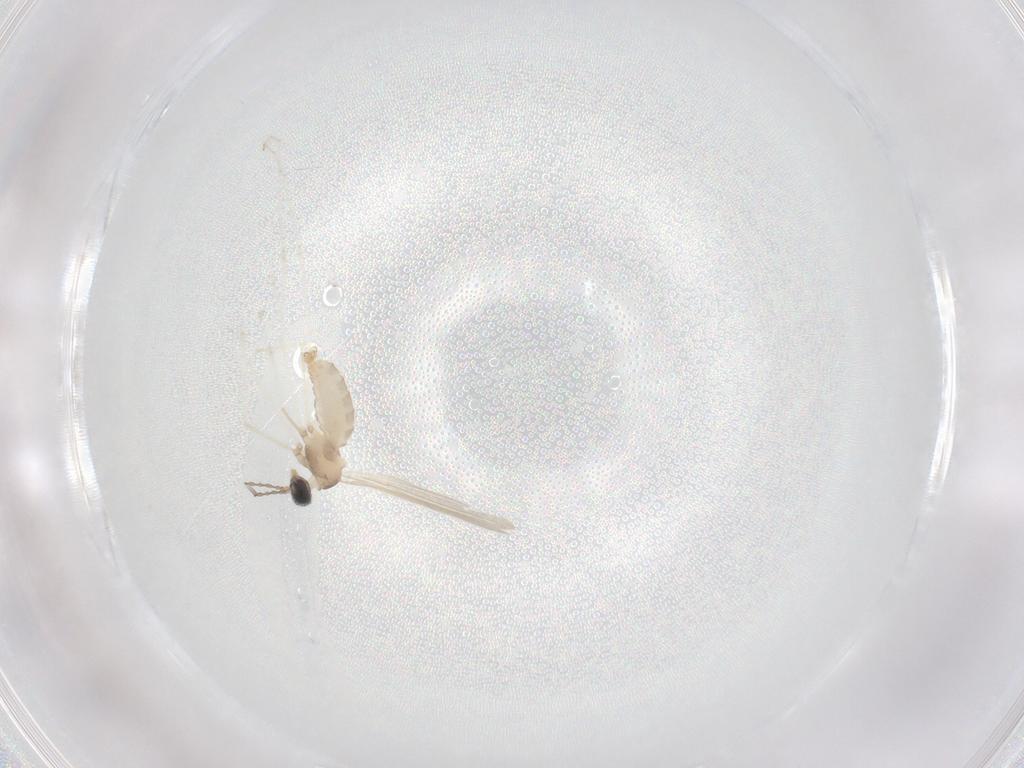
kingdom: Animalia
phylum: Arthropoda
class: Insecta
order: Diptera
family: Cecidomyiidae
